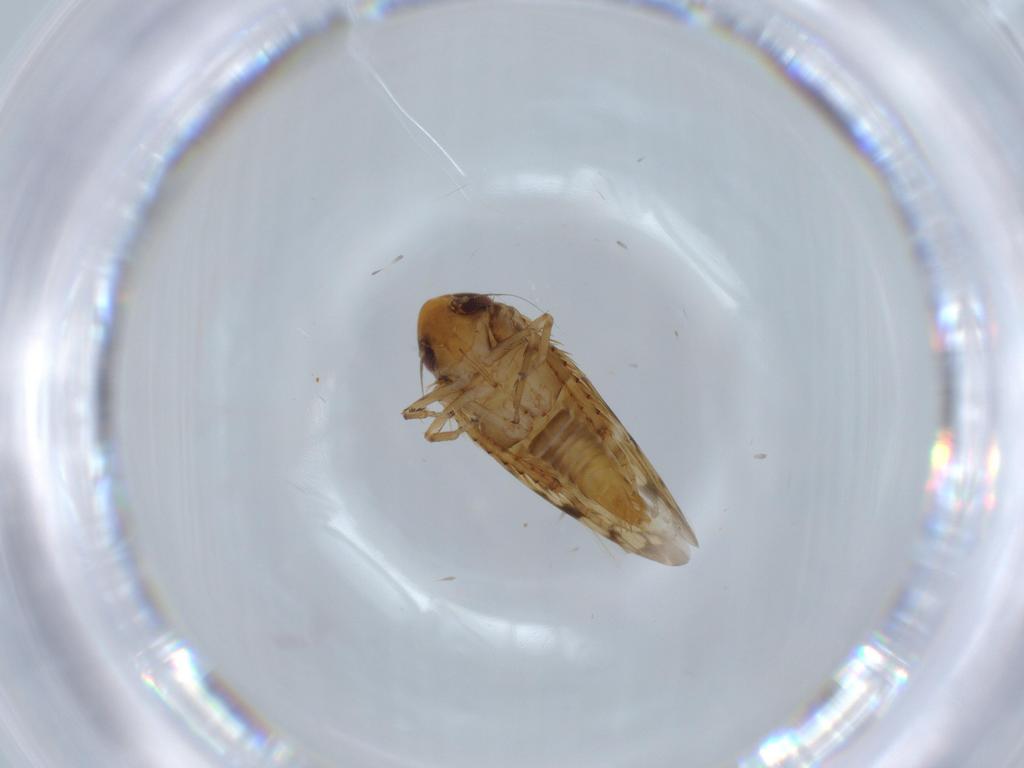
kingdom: Animalia
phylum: Arthropoda
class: Insecta
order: Hemiptera
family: Cicadellidae
